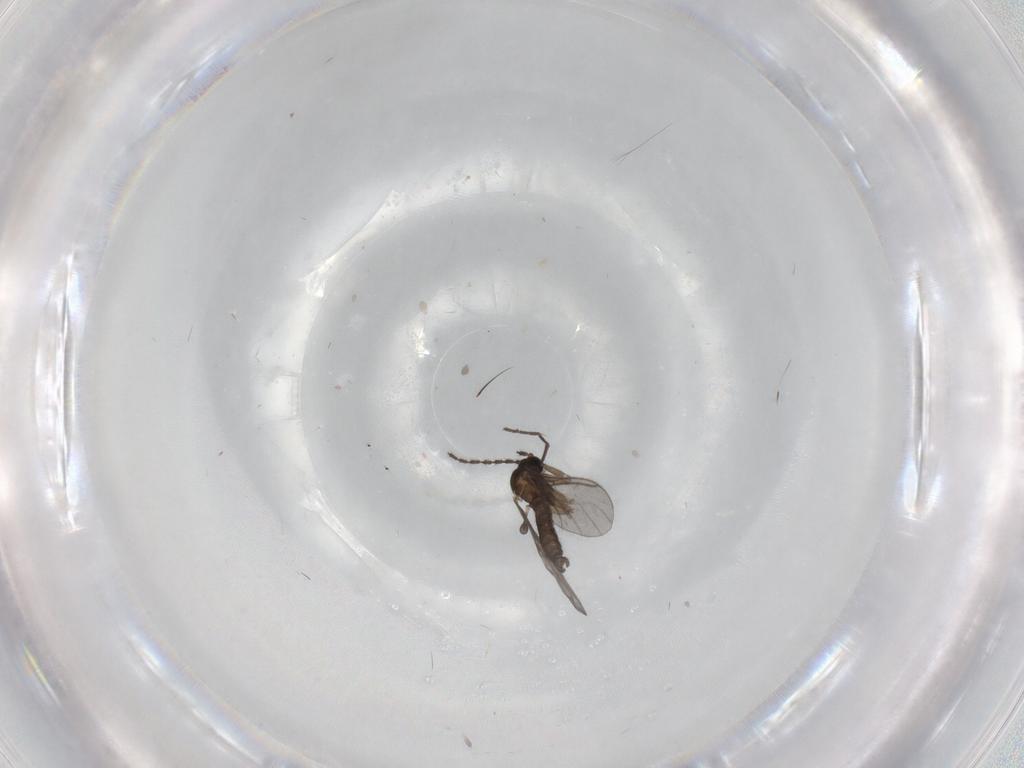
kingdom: Animalia
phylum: Arthropoda
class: Insecta
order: Diptera
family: Sciaridae
